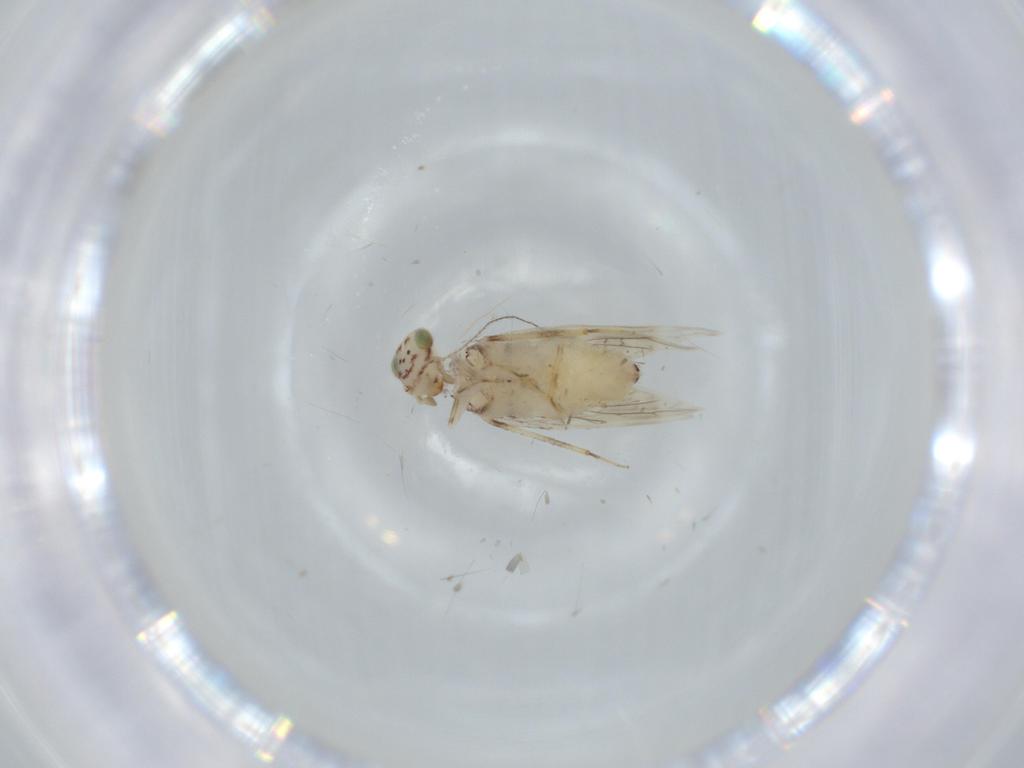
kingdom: Animalia
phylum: Arthropoda
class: Insecta
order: Psocodea
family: Lepidopsocidae
